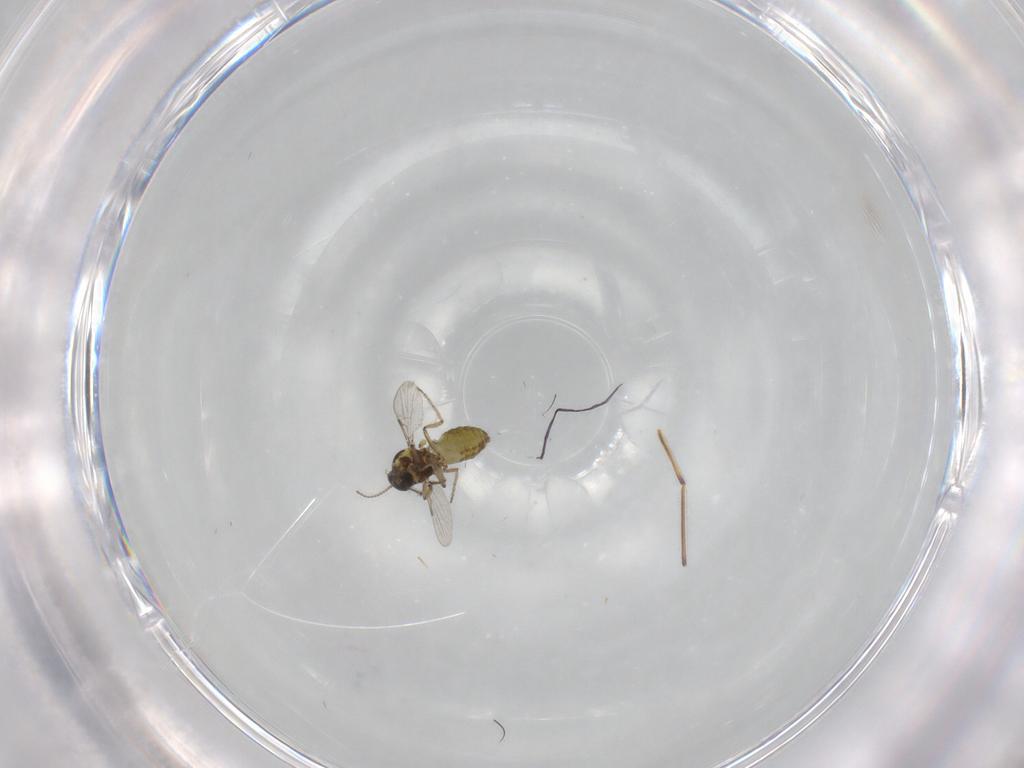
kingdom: Animalia
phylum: Arthropoda
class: Insecta
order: Diptera
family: Ceratopogonidae
